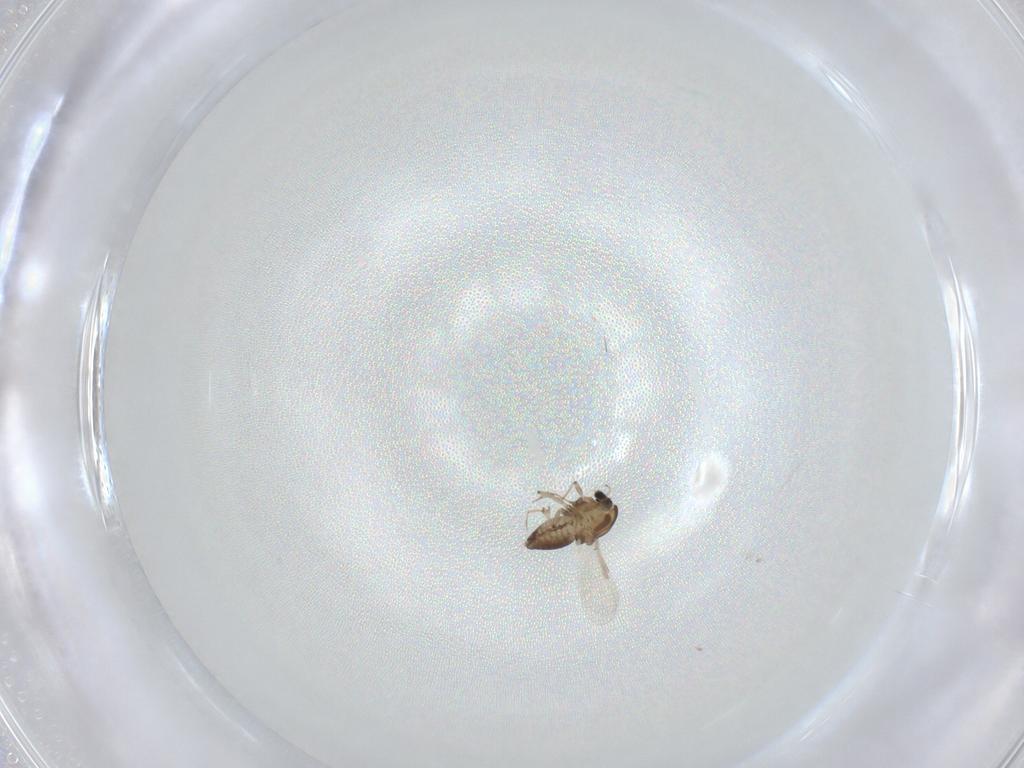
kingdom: Animalia
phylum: Arthropoda
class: Insecta
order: Diptera
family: Chironomidae
